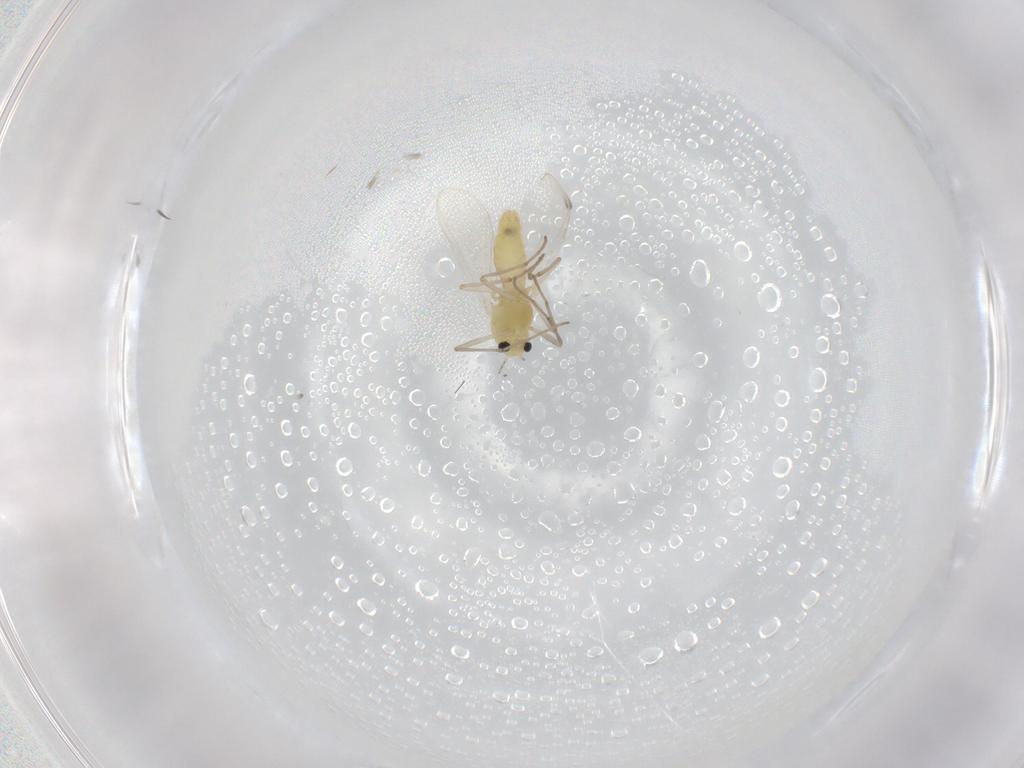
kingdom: Animalia
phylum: Arthropoda
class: Insecta
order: Diptera
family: Chironomidae
